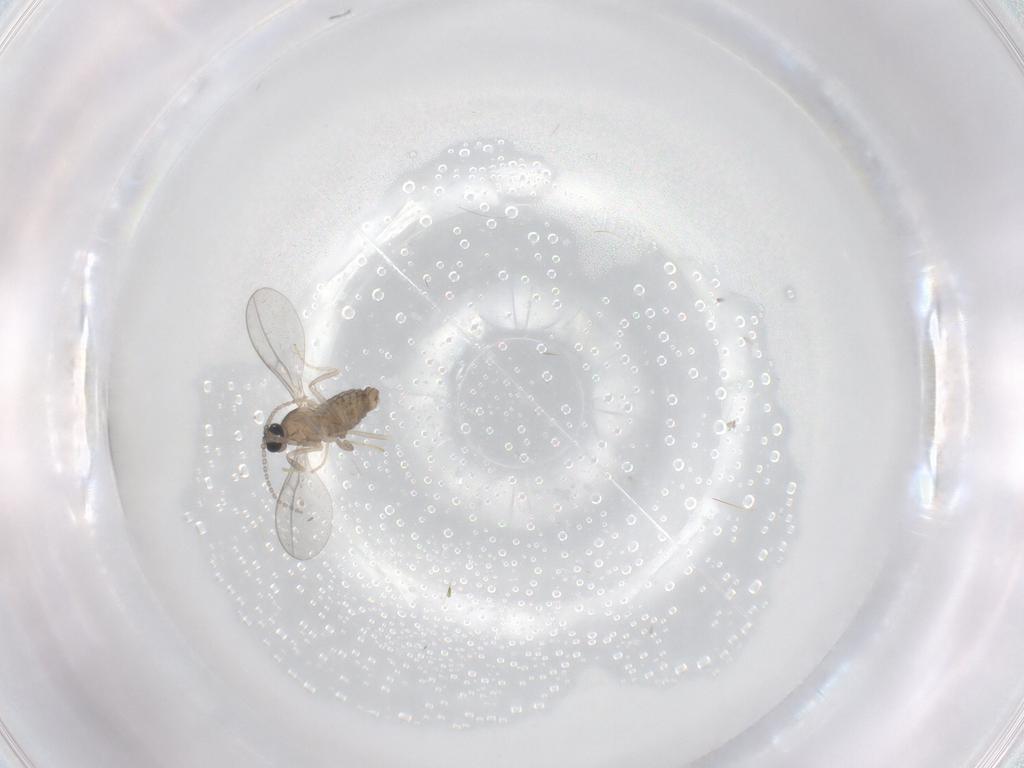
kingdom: Animalia
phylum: Arthropoda
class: Insecta
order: Diptera
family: Cecidomyiidae
